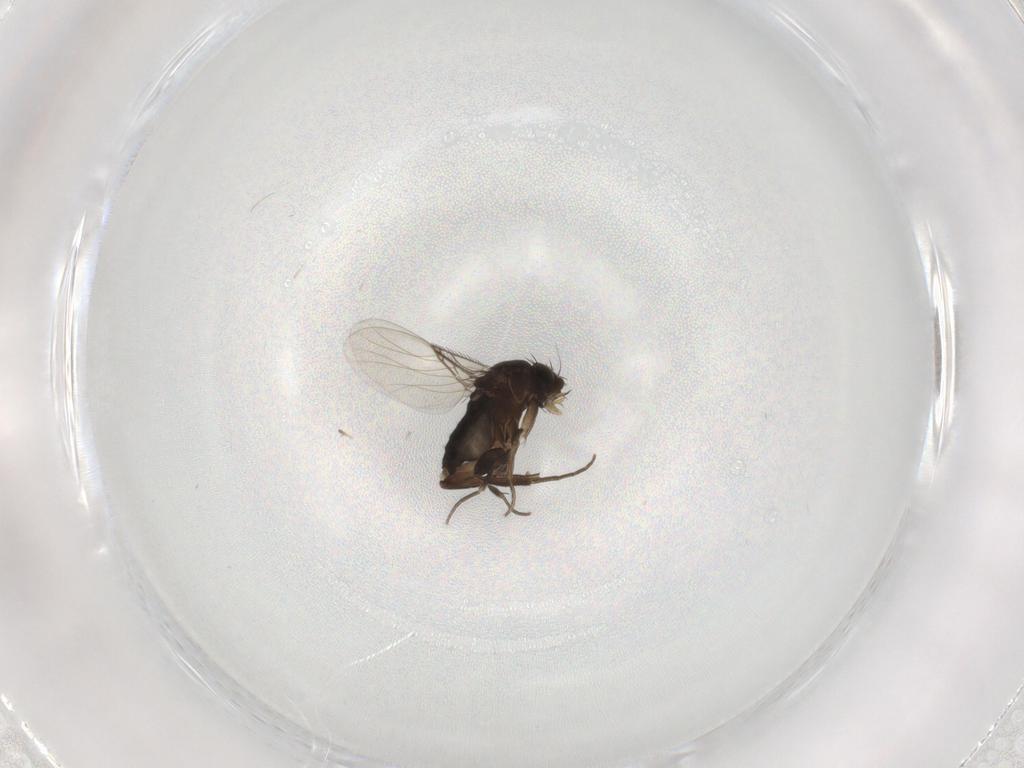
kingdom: Animalia
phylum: Arthropoda
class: Insecta
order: Diptera
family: Phoridae
